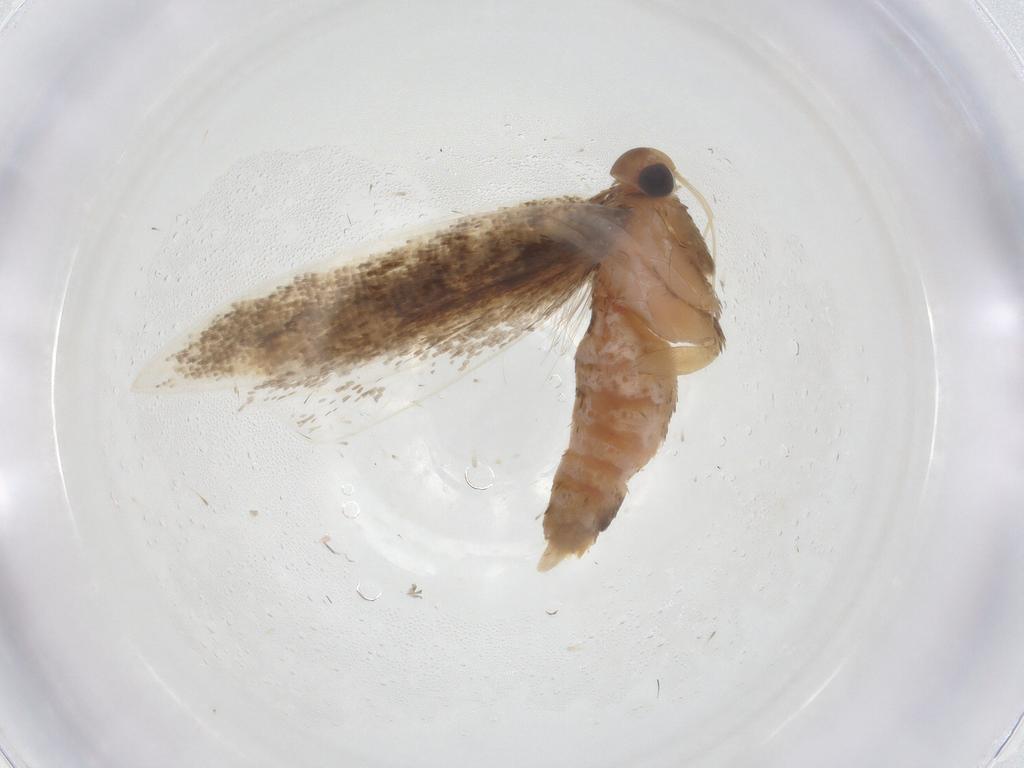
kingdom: Animalia
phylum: Arthropoda
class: Insecta
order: Lepidoptera
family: Gelechiidae
